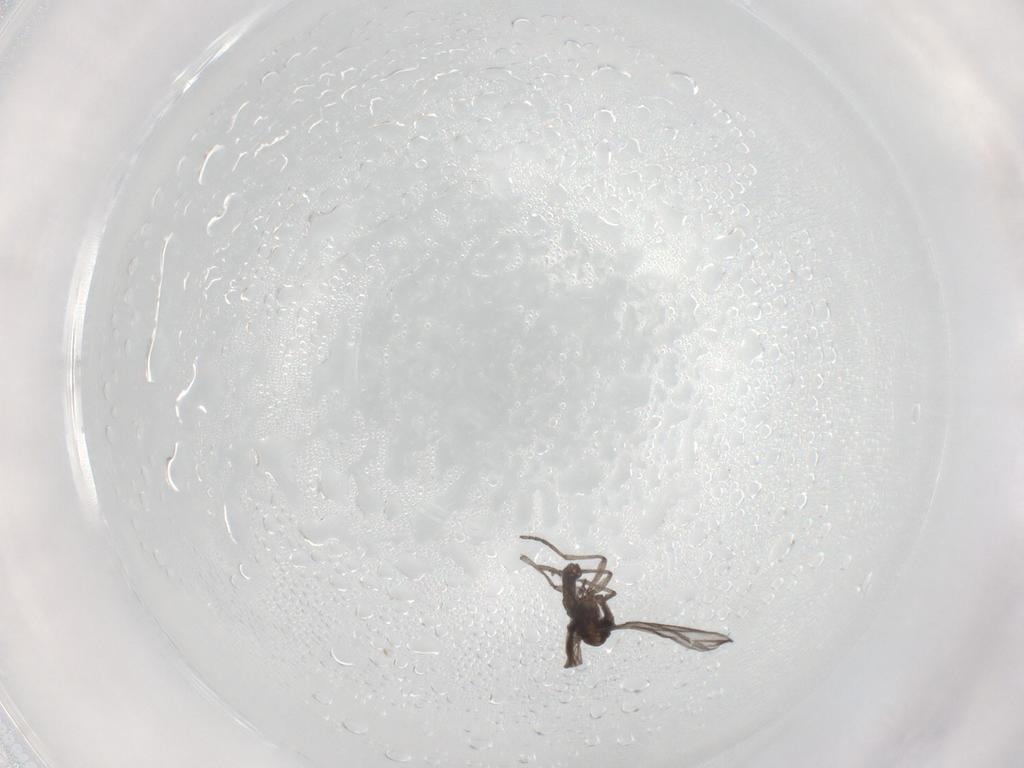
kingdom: Animalia
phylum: Arthropoda
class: Insecta
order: Diptera
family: Sciaridae
